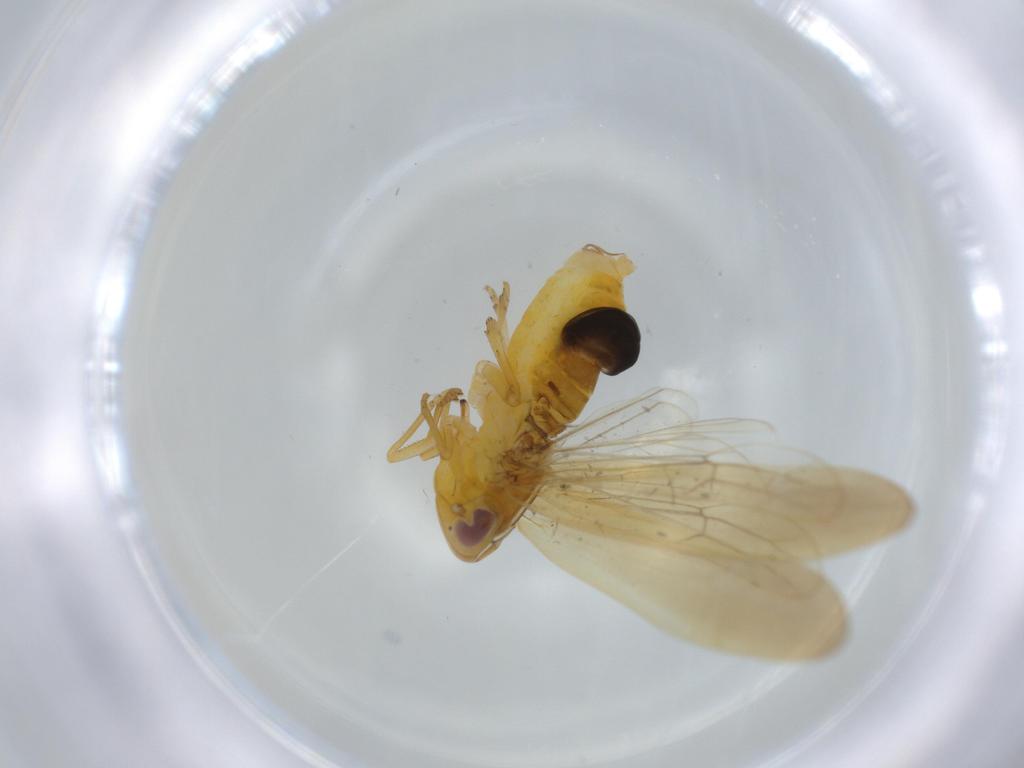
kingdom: Animalia
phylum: Arthropoda
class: Insecta
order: Hemiptera
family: Delphacidae
